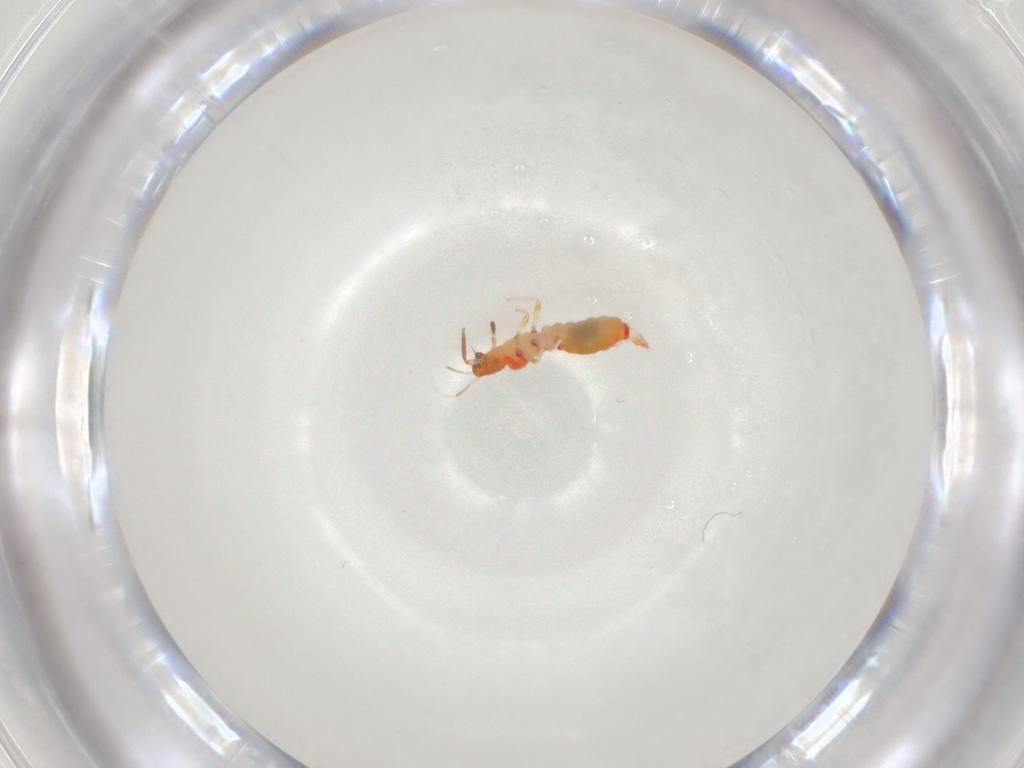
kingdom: Animalia
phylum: Arthropoda
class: Insecta
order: Thysanoptera
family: Aeolothripidae
